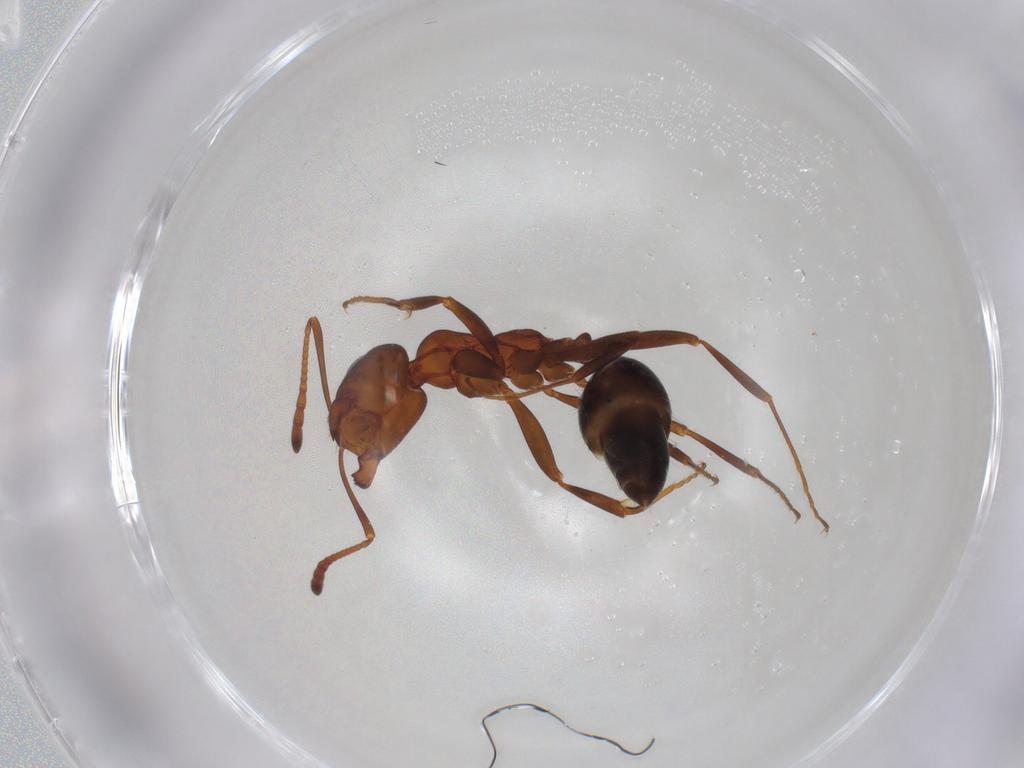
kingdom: Animalia
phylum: Arthropoda
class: Insecta
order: Hymenoptera
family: Formicidae
